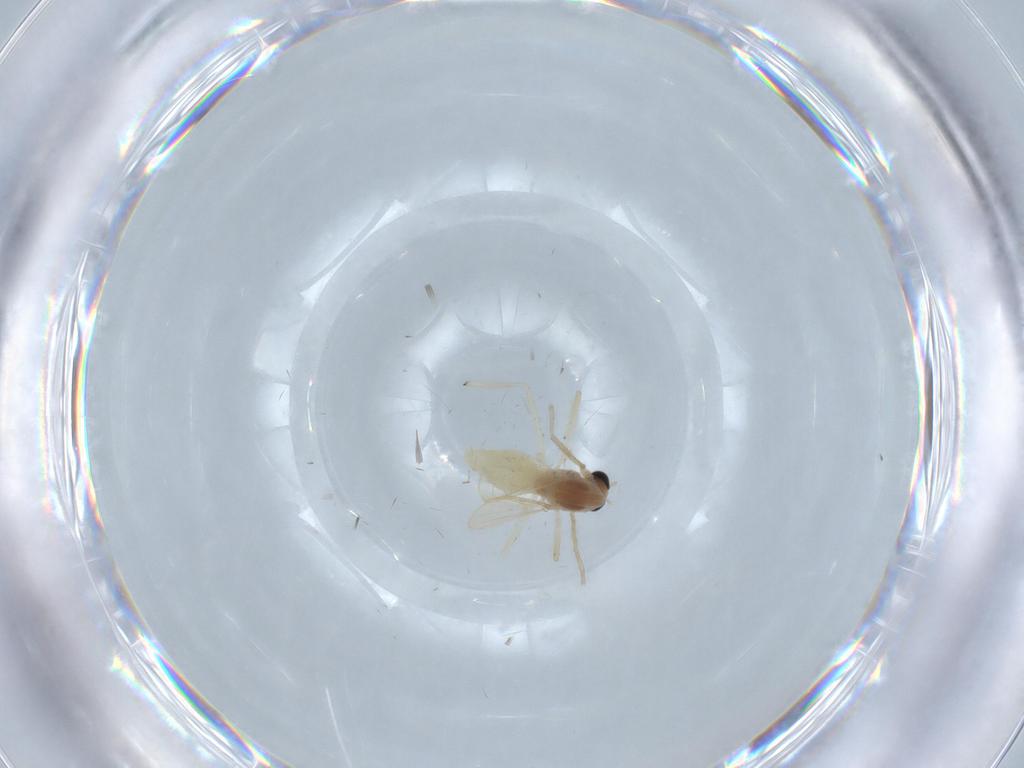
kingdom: Animalia
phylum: Arthropoda
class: Insecta
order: Diptera
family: Chironomidae
